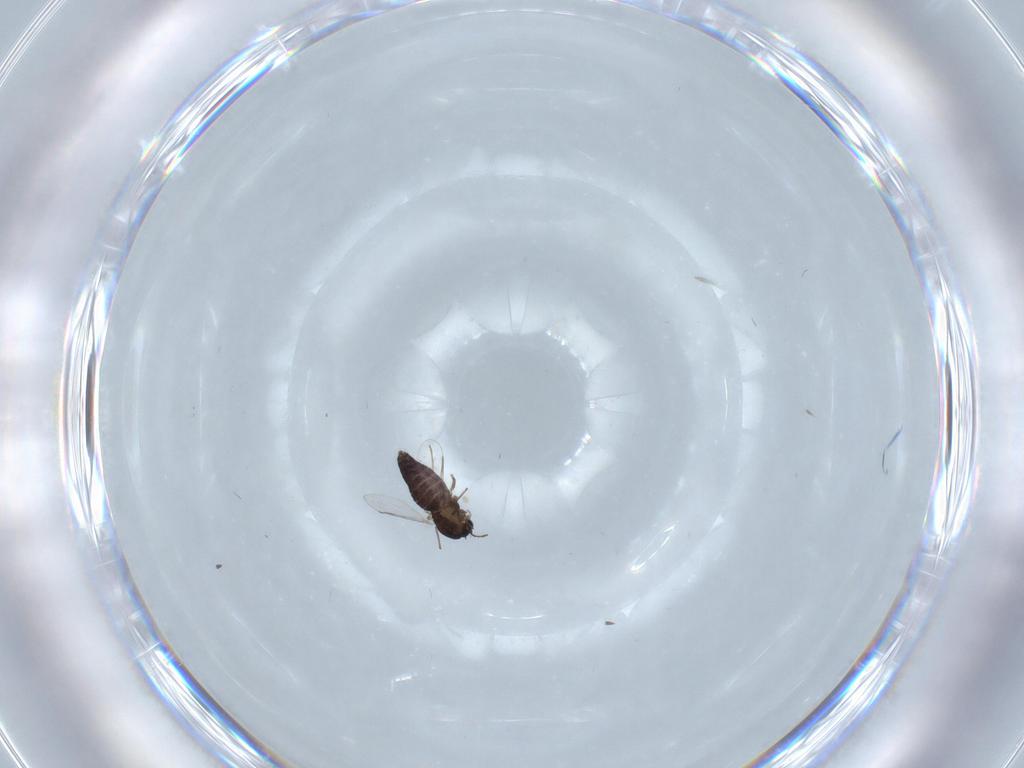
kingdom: Animalia
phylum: Arthropoda
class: Insecta
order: Diptera
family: Chironomidae
